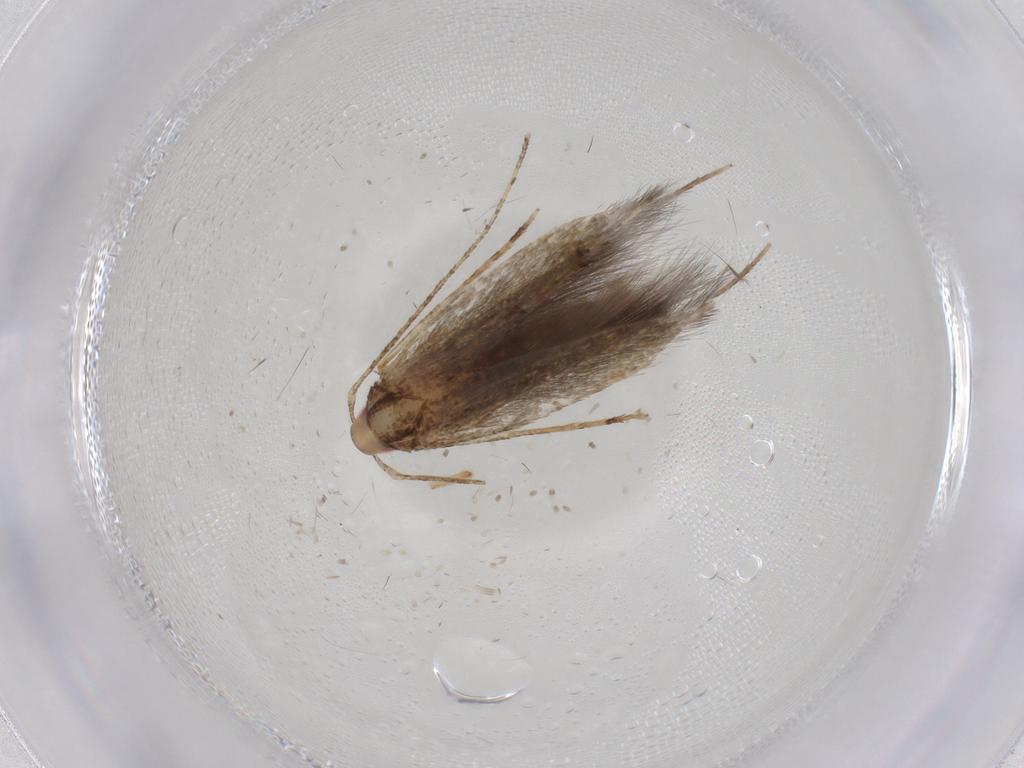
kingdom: Animalia
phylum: Arthropoda
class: Insecta
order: Lepidoptera
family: Cosmopterigidae
